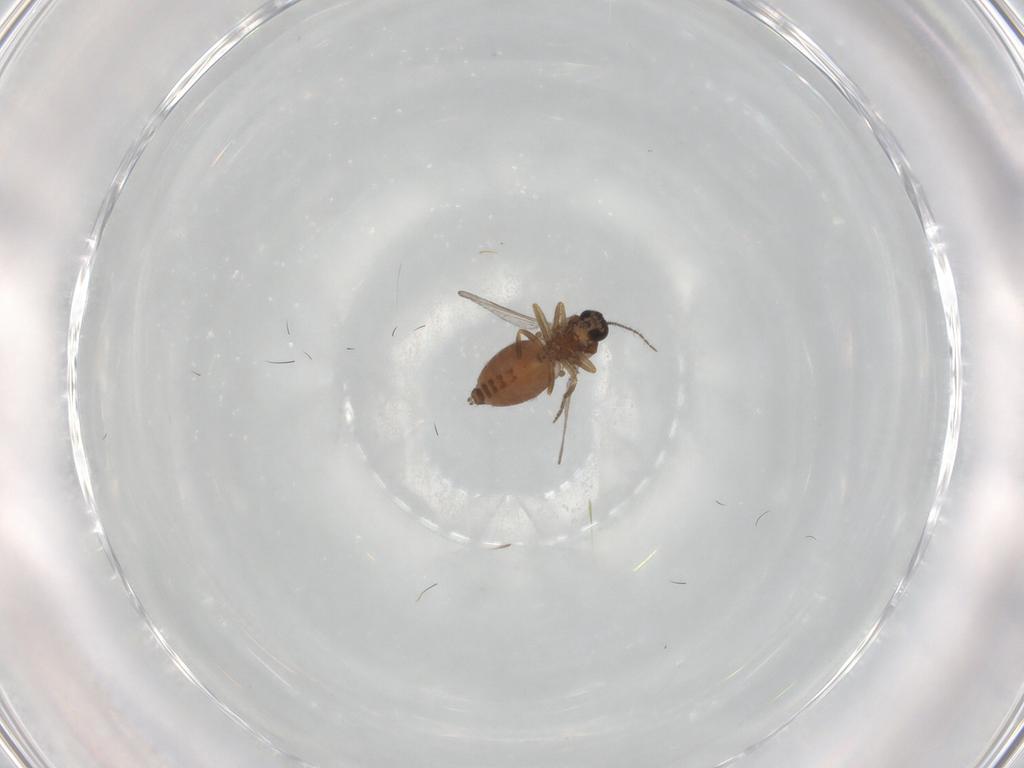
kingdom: Animalia
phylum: Arthropoda
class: Insecta
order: Diptera
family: Ceratopogonidae
